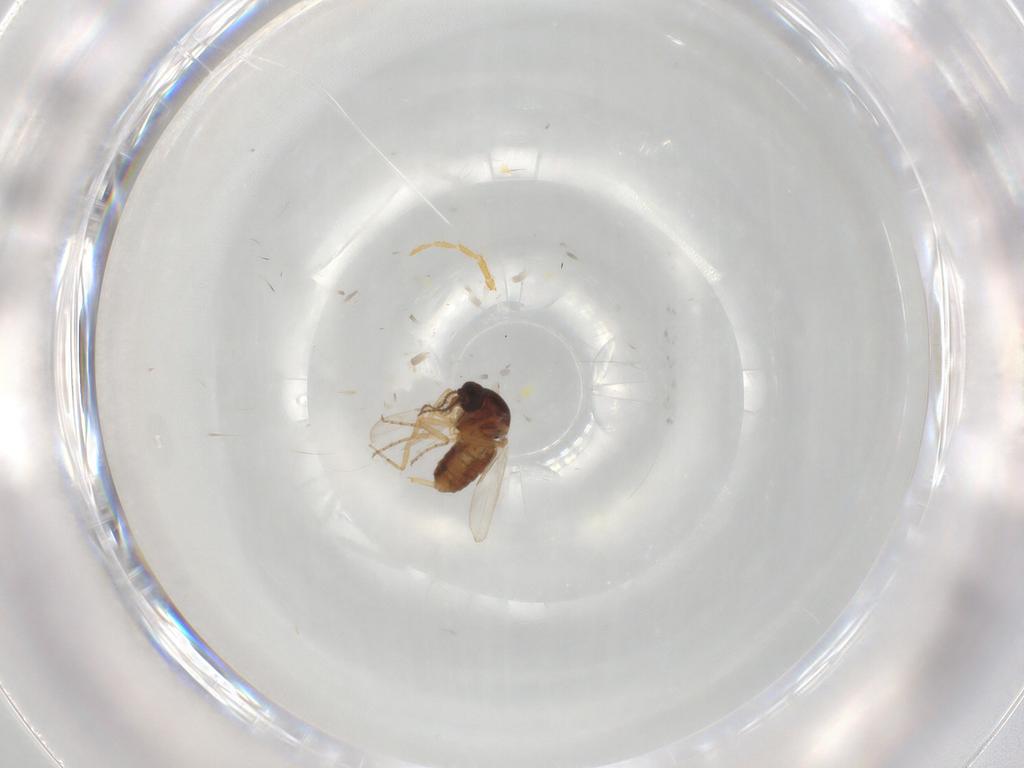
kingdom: Animalia
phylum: Arthropoda
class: Insecta
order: Diptera
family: Ceratopogonidae
